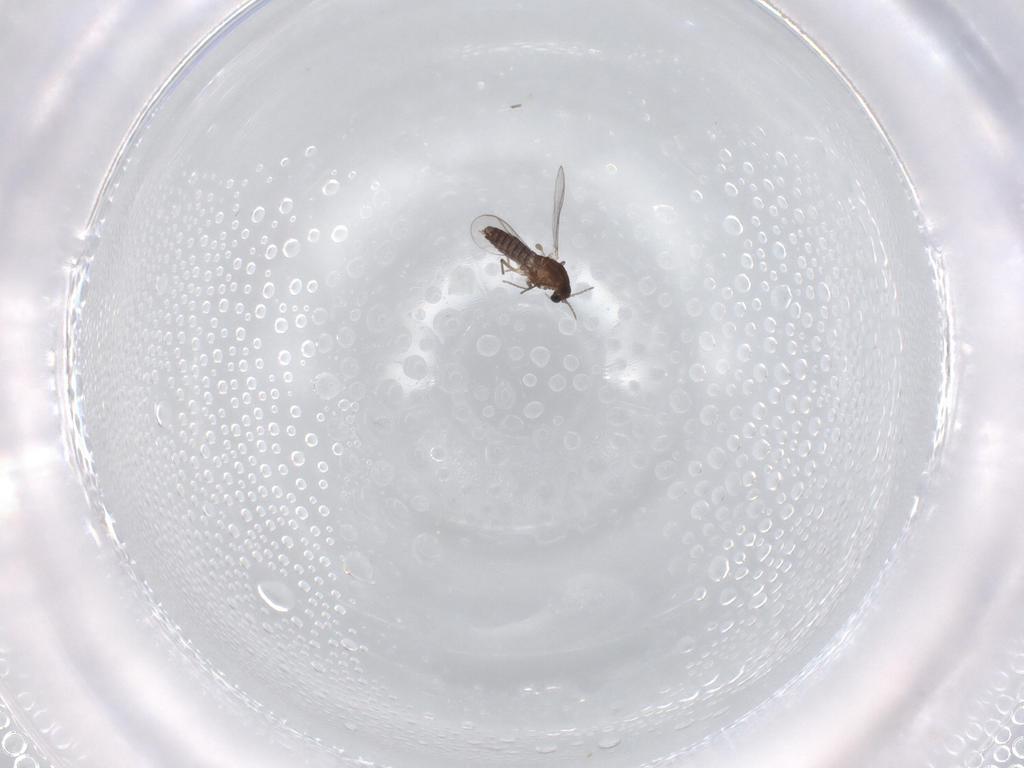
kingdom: Animalia
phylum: Arthropoda
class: Insecta
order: Diptera
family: Chironomidae
